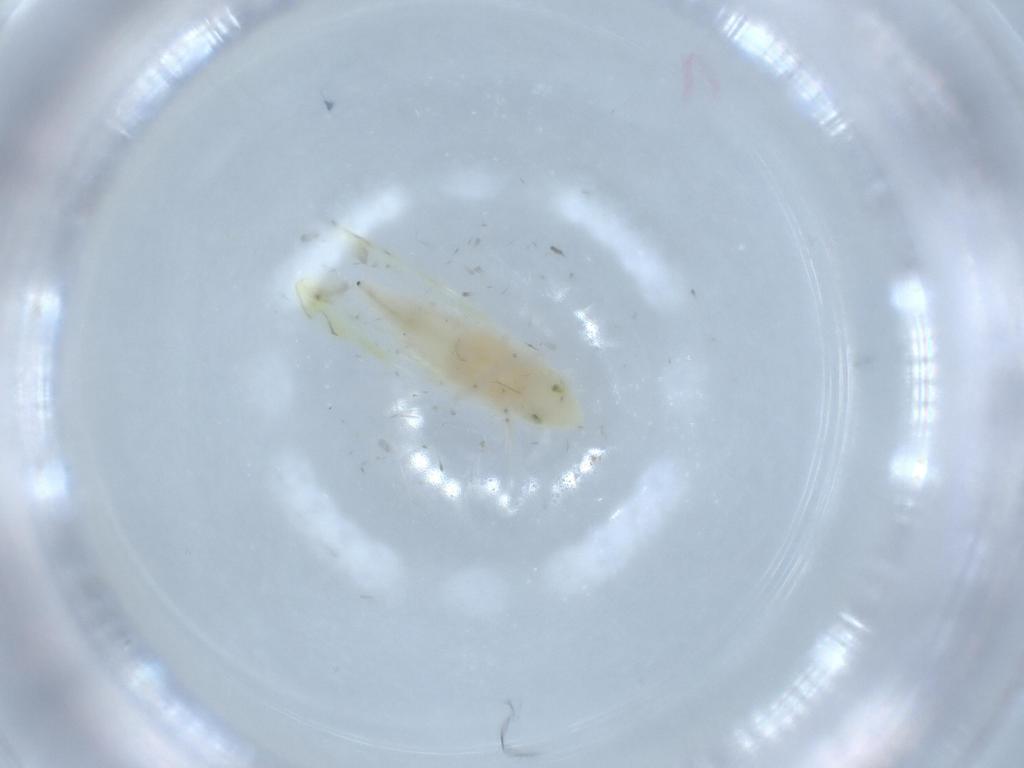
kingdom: Animalia
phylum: Arthropoda
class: Insecta
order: Hemiptera
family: Cicadellidae
